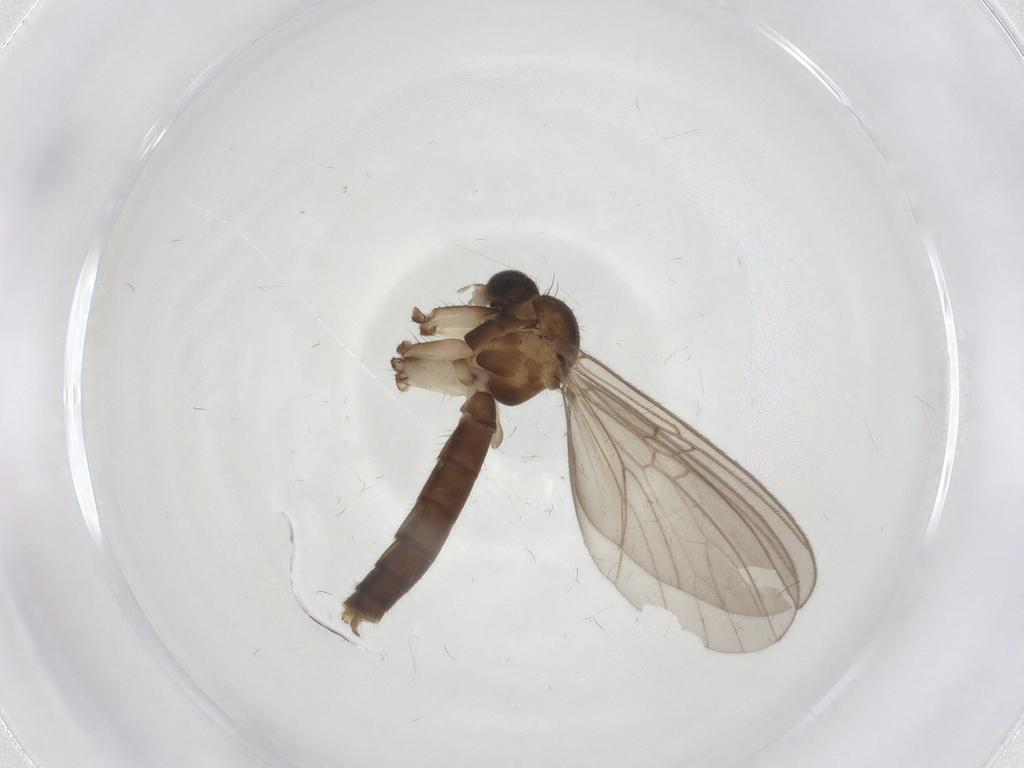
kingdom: Animalia
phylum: Arthropoda
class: Insecta
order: Diptera
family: Mycetophilidae
